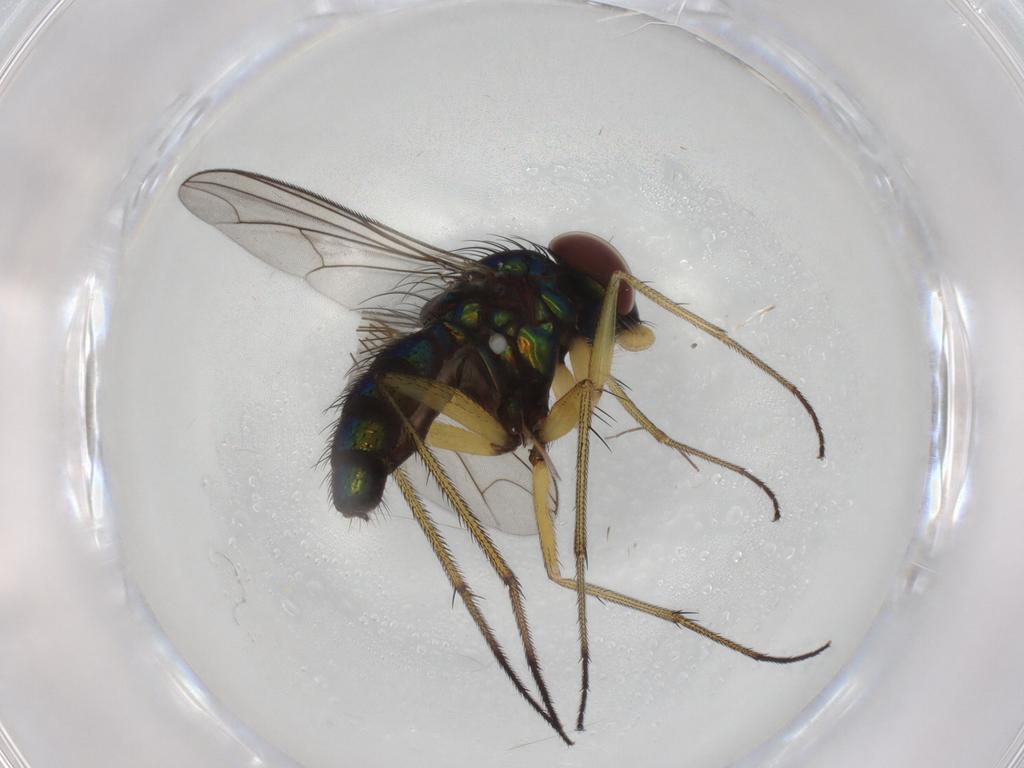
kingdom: Animalia
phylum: Arthropoda
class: Insecta
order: Diptera
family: Dolichopodidae
